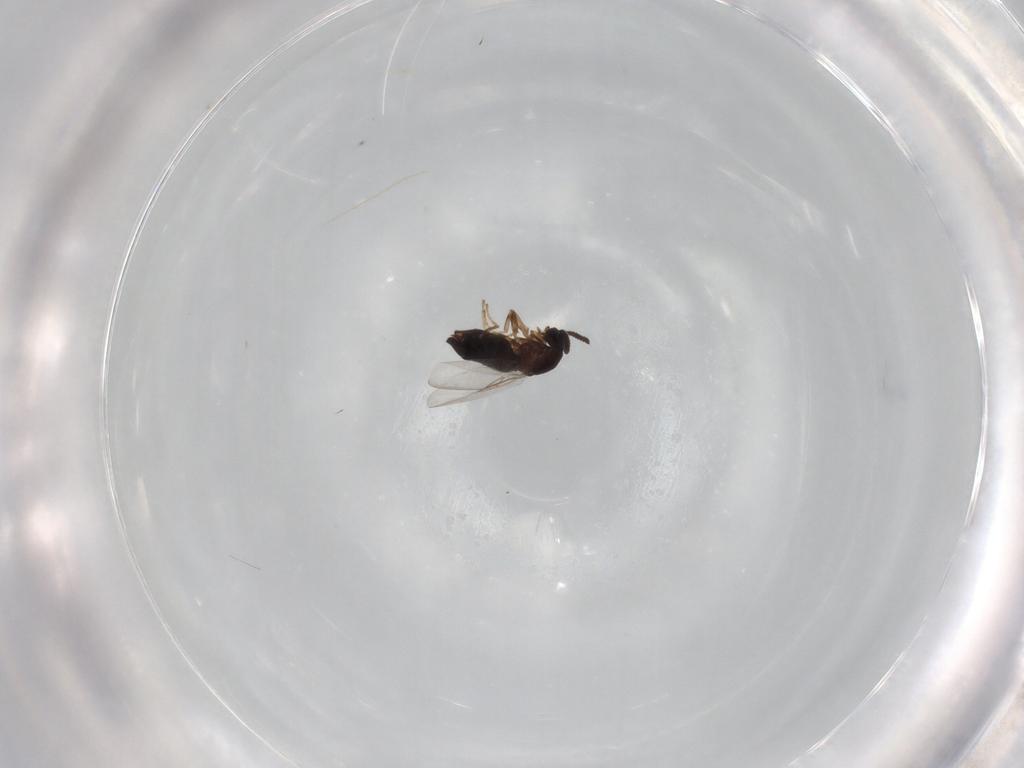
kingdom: Animalia
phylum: Arthropoda
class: Insecta
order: Diptera
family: Scatopsidae
